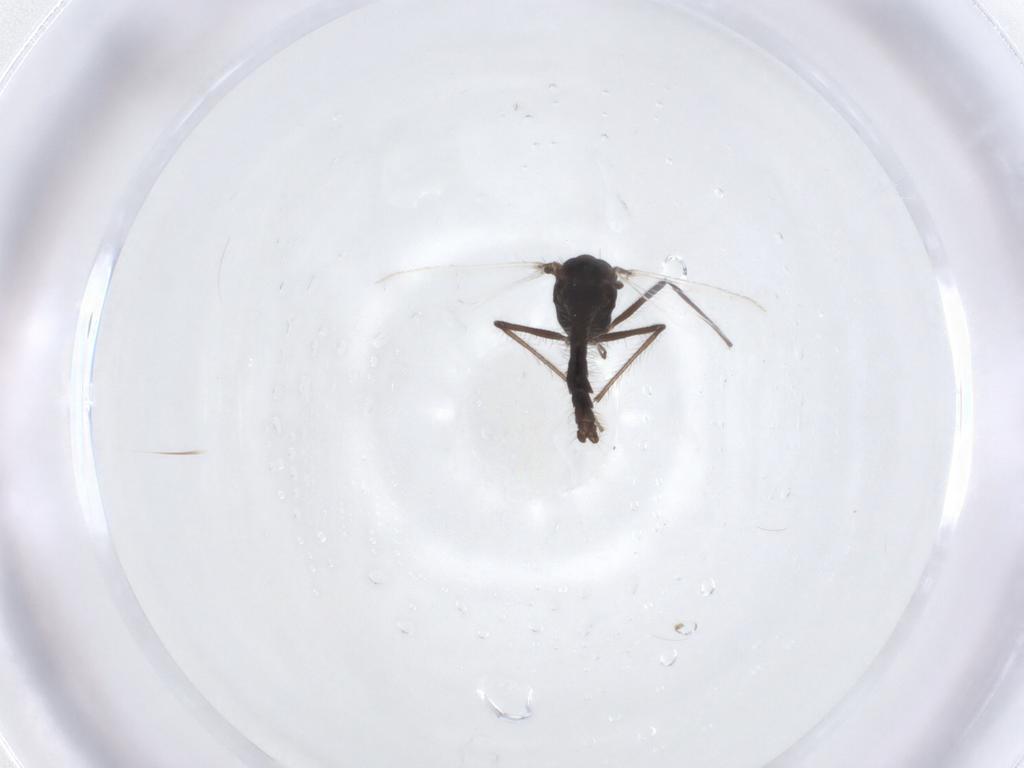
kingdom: Animalia
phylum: Arthropoda
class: Insecta
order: Diptera
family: Chironomidae
